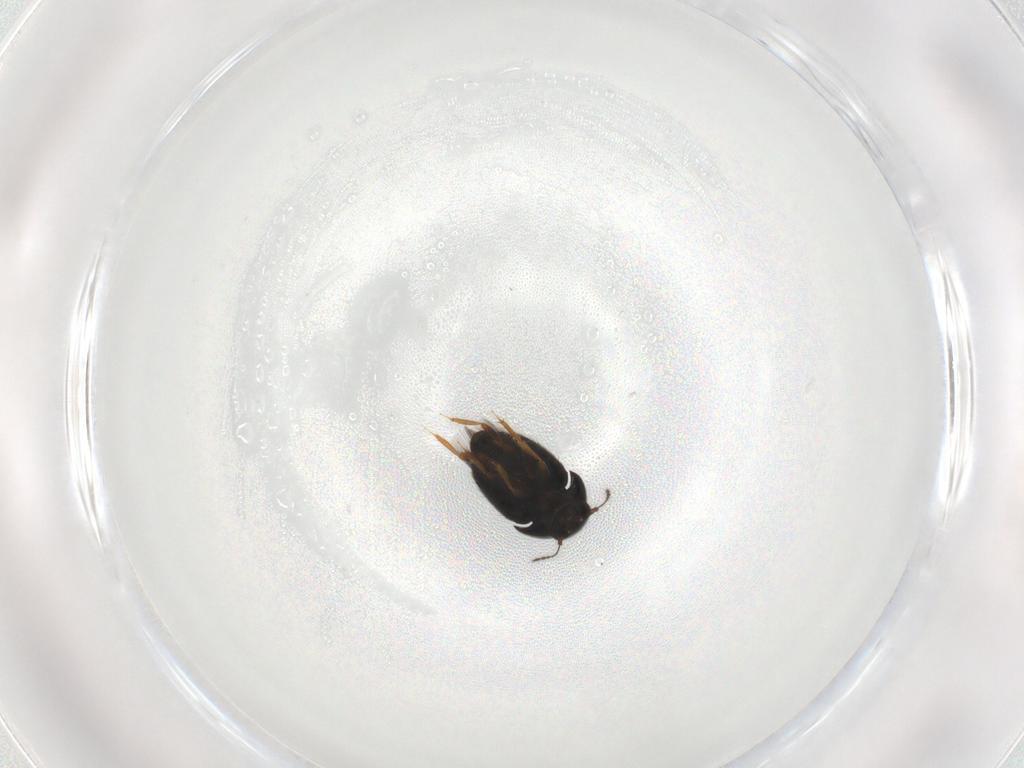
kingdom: Animalia
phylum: Arthropoda
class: Insecta
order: Coleoptera
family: Ptiliidae
